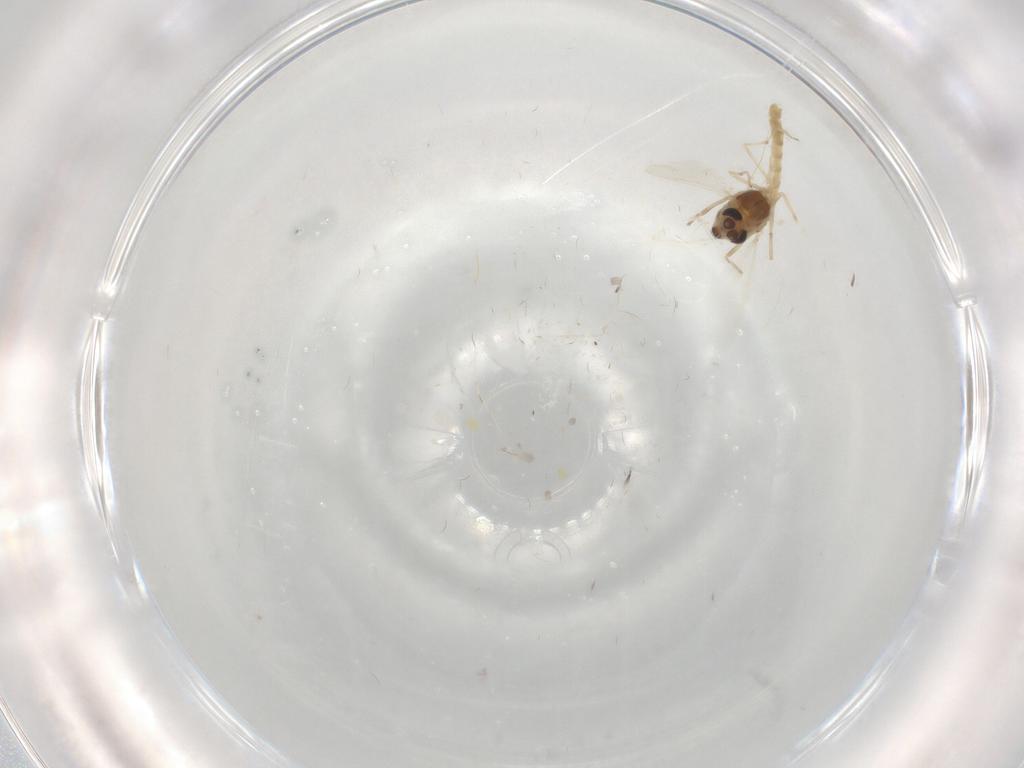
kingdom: Animalia
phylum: Arthropoda
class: Insecta
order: Diptera
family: Chironomidae
